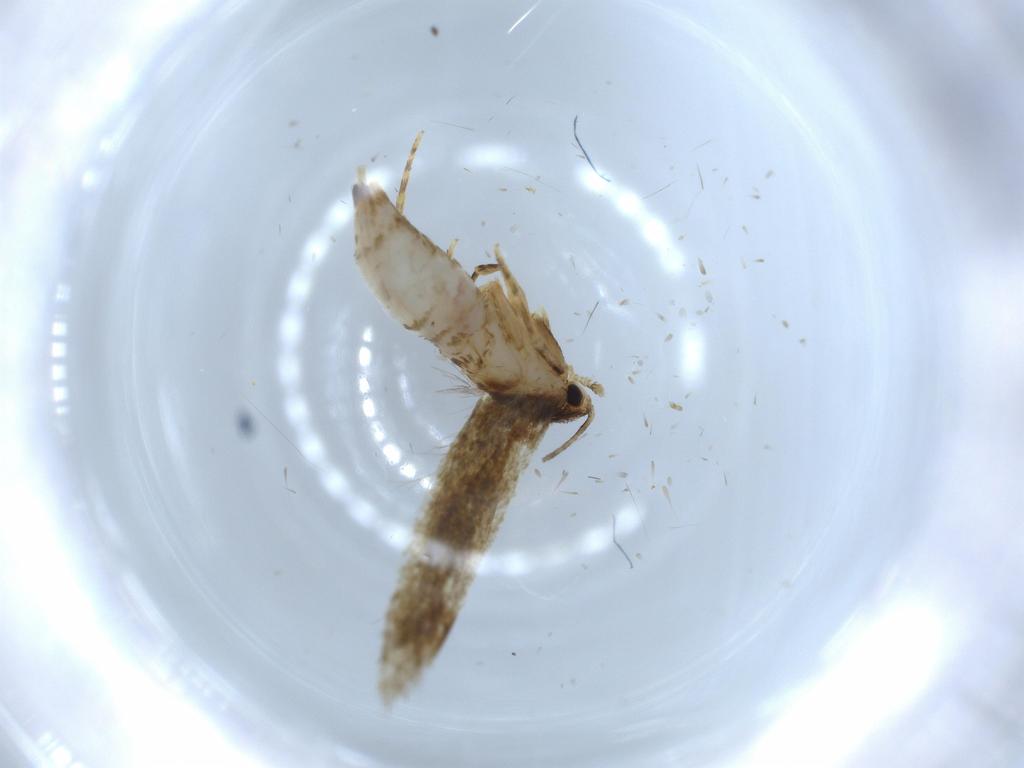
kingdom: Animalia
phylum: Arthropoda
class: Insecta
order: Lepidoptera
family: Tineidae
